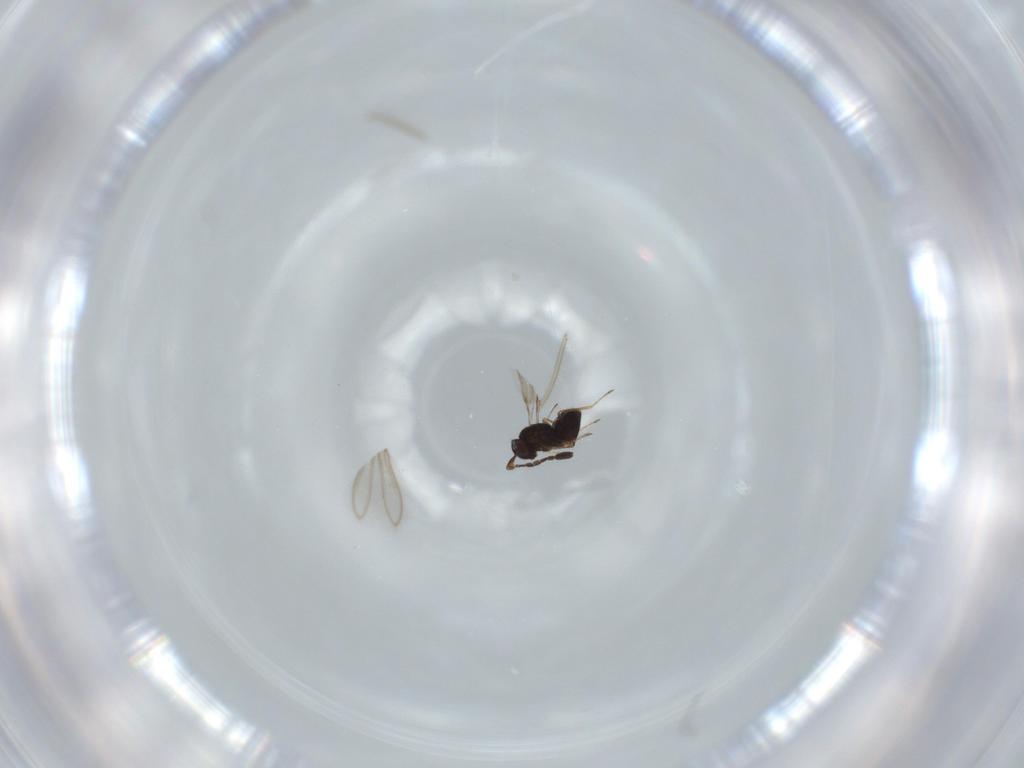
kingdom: Animalia
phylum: Arthropoda
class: Insecta
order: Hymenoptera
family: Mymaridae
